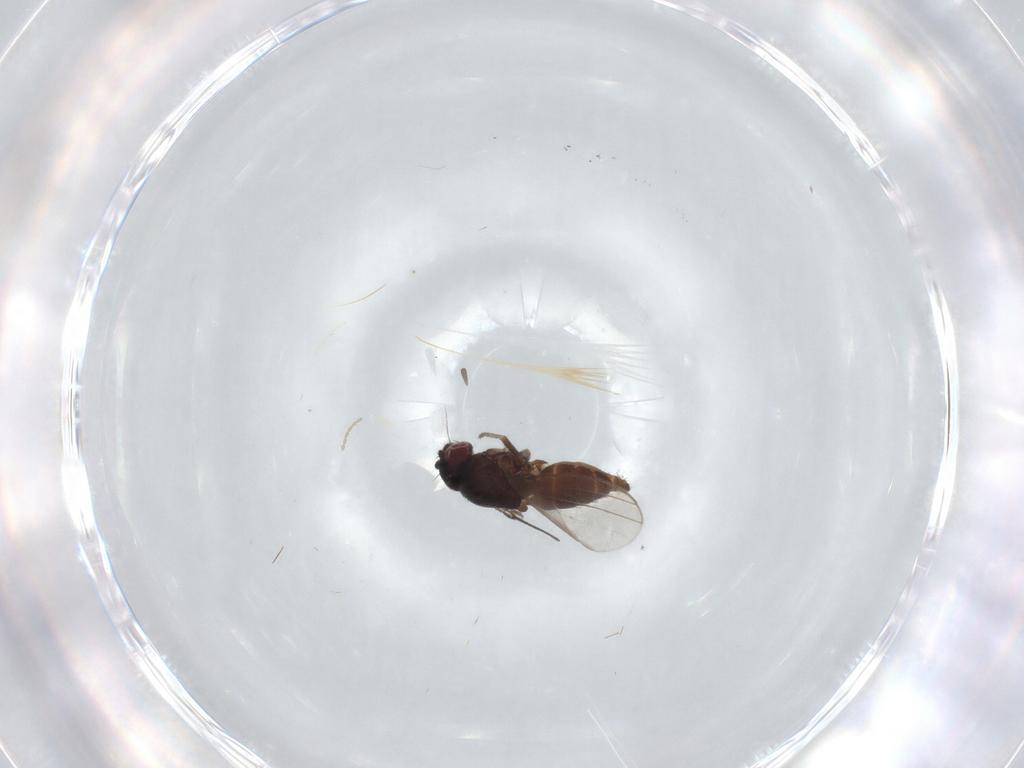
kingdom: Animalia
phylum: Arthropoda
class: Insecta
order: Diptera
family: Milichiidae
